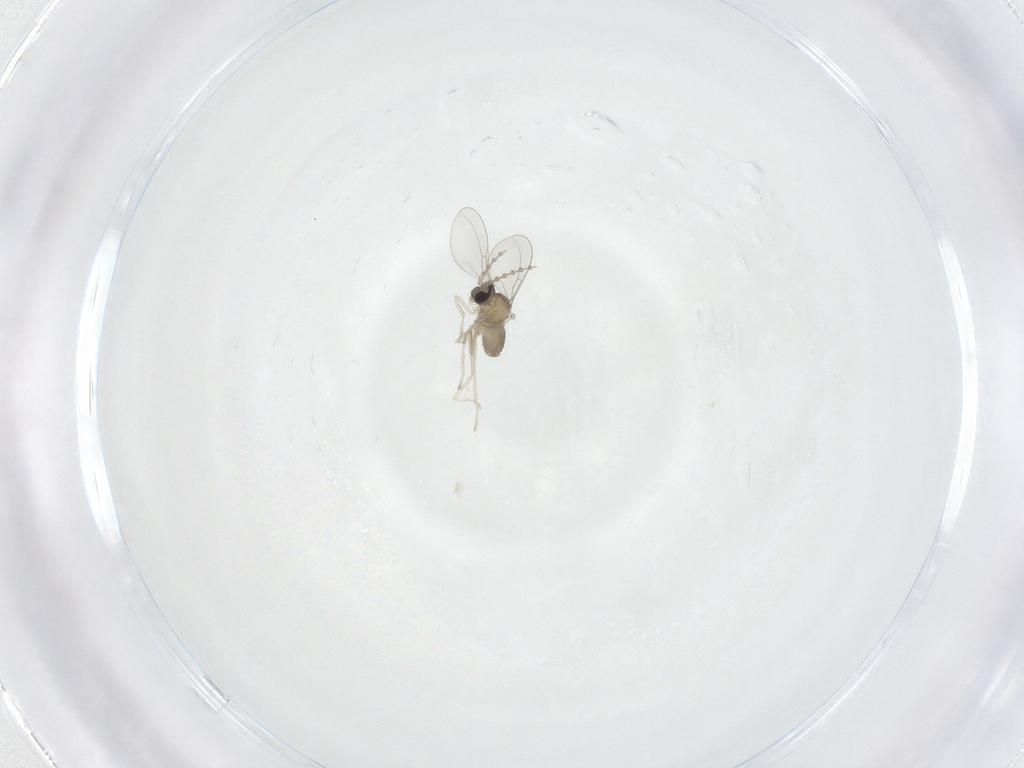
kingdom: Animalia
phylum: Arthropoda
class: Insecta
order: Diptera
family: Cecidomyiidae
